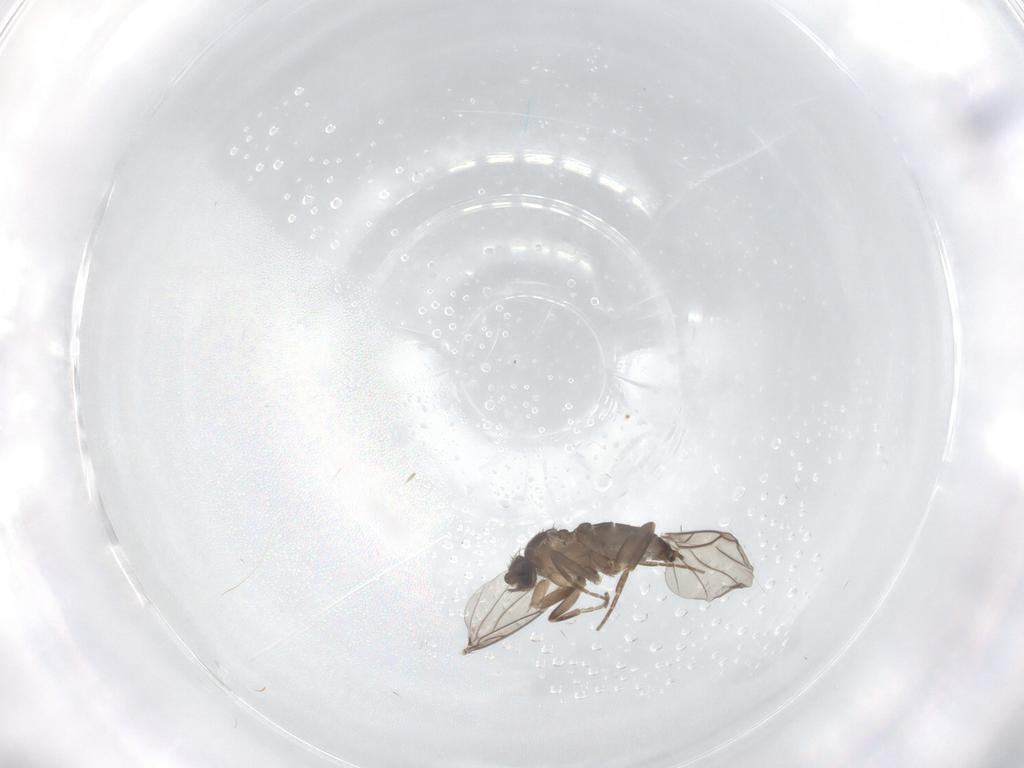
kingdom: Animalia
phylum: Arthropoda
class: Insecta
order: Diptera
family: Phoridae
